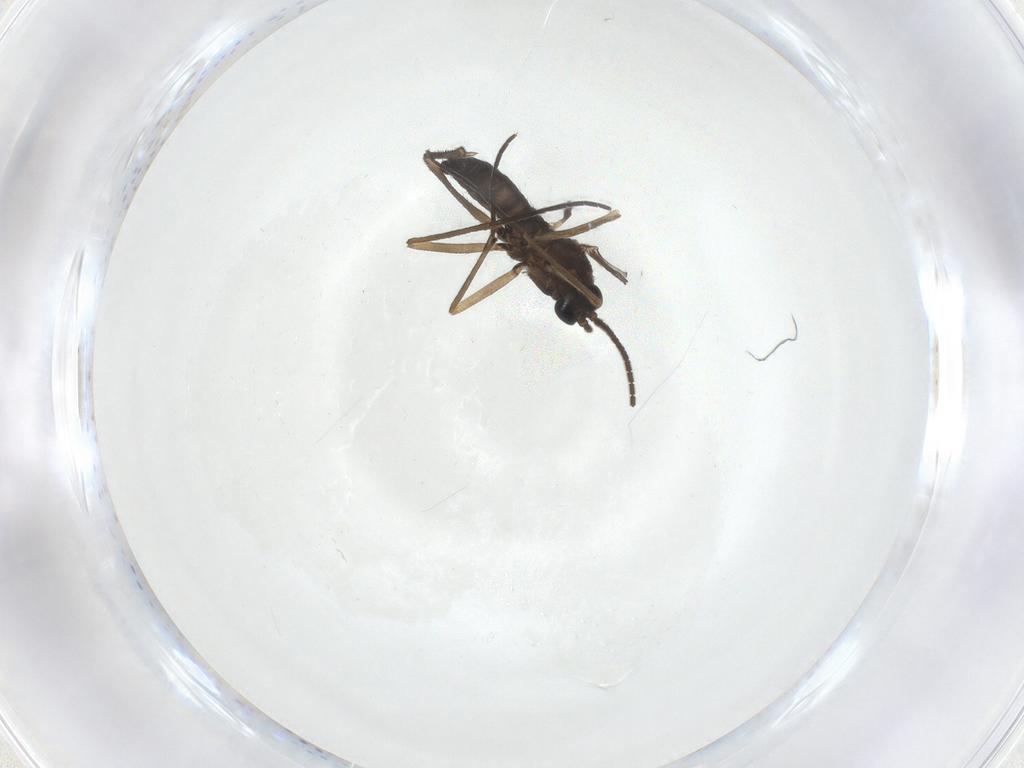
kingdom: Animalia
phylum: Arthropoda
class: Insecta
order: Diptera
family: Sciaridae
